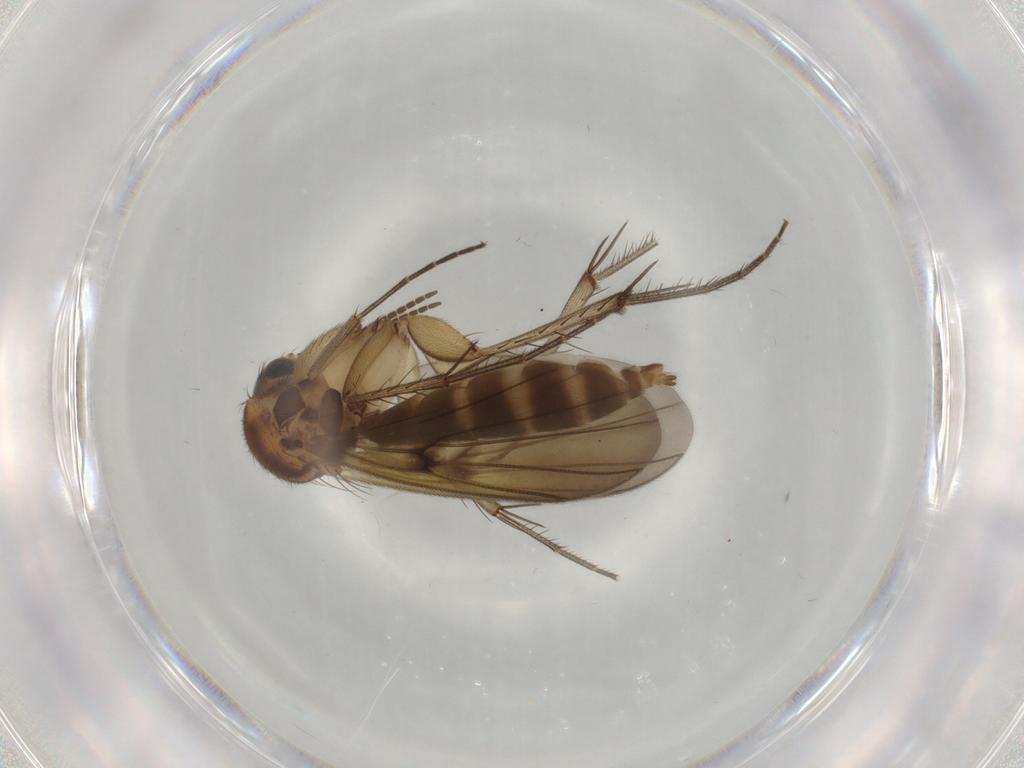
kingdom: Animalia
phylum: Arthropoda
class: Insecta
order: Diptera
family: Mycetophilidae
